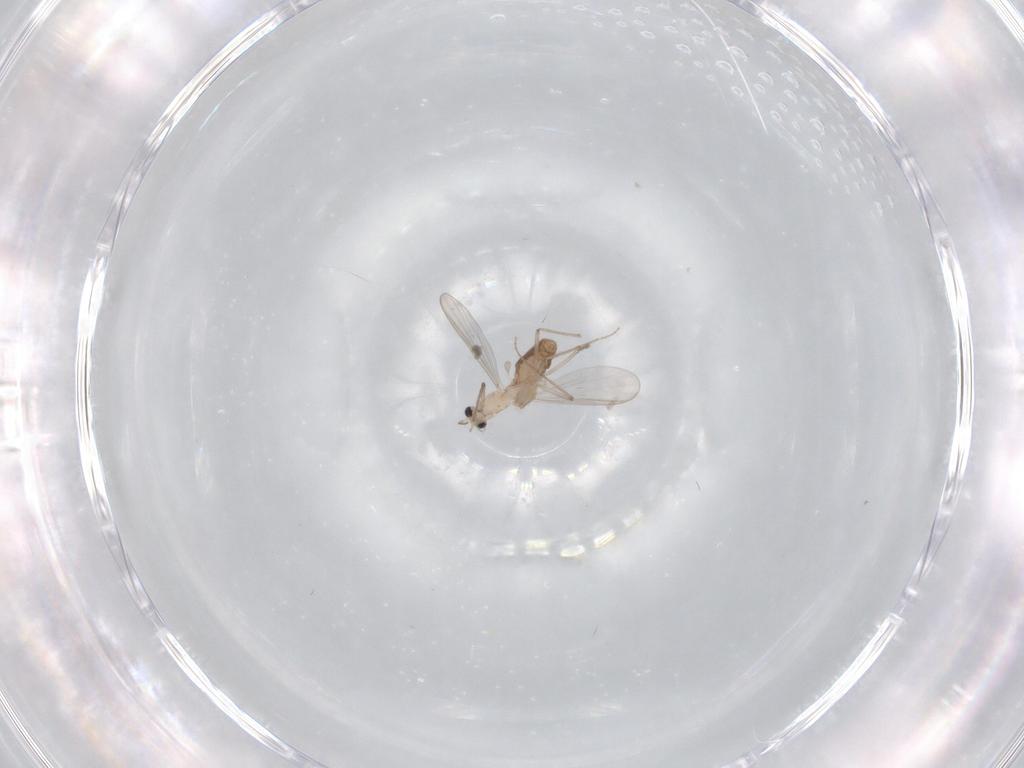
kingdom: Animalia
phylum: Arthropoda
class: Insecta
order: Diptera
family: Chironomidae
